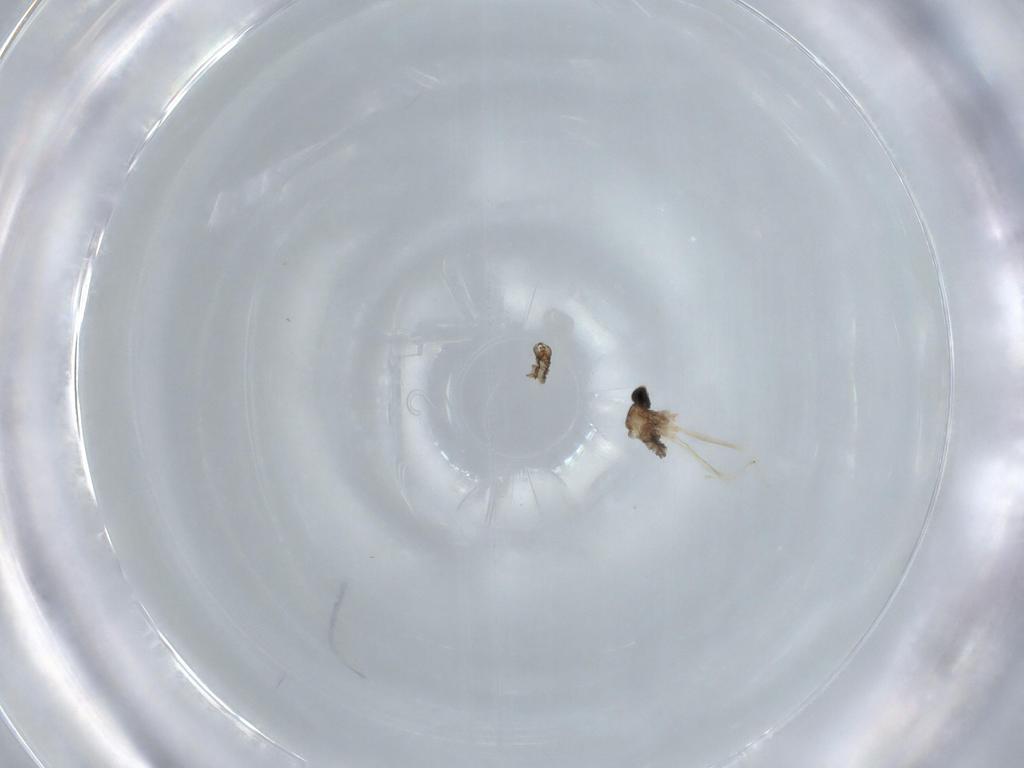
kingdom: Animalia
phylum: Arthropoda
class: Insecta
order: Diptera
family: Cecidomyiidae
